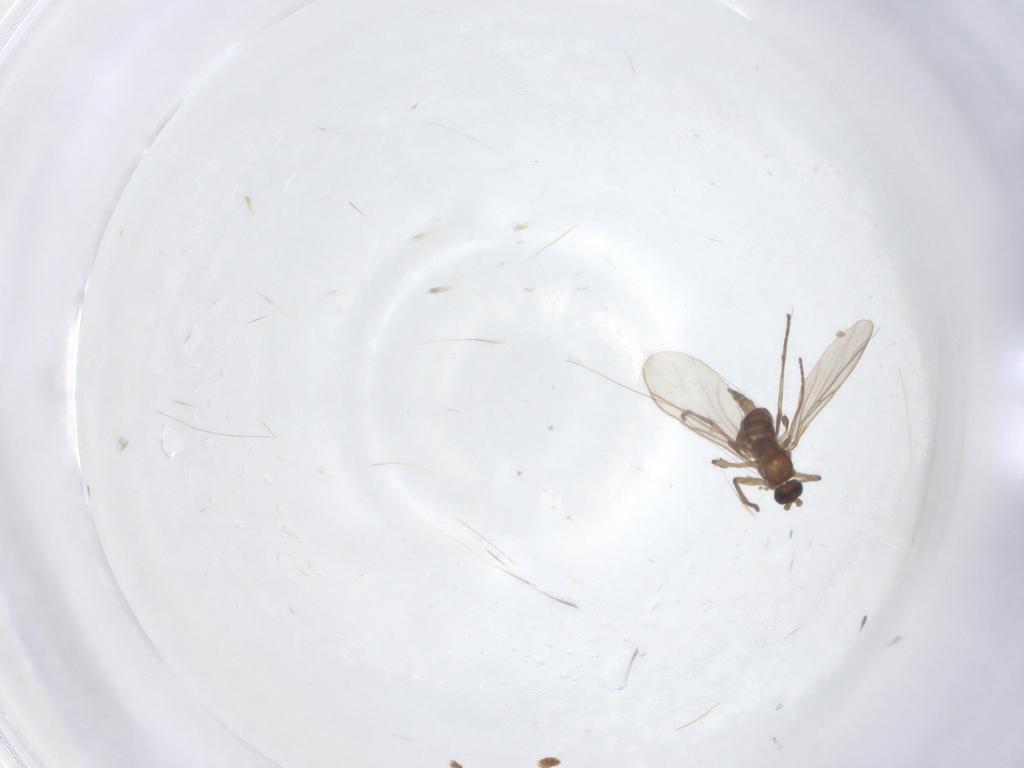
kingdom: Animalia
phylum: Arthropoda
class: Insecta
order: Diptera
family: Cecidomyiidae
